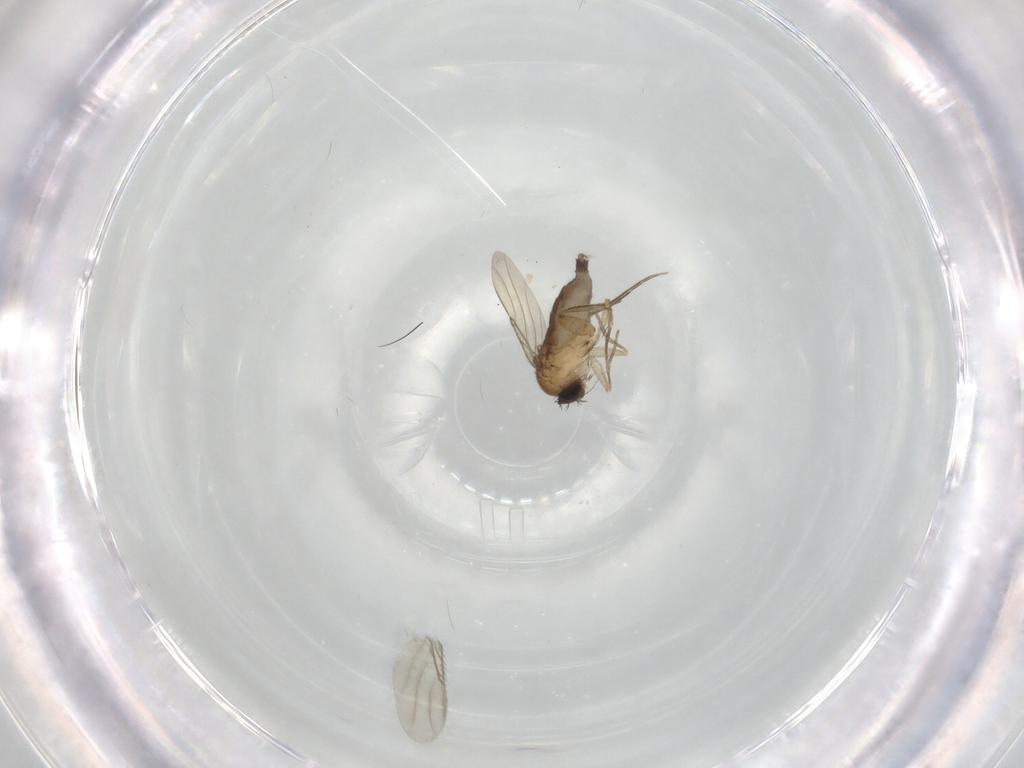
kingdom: Animalia
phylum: Arthropoda
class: Insecta
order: Diptera
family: Phoridae
